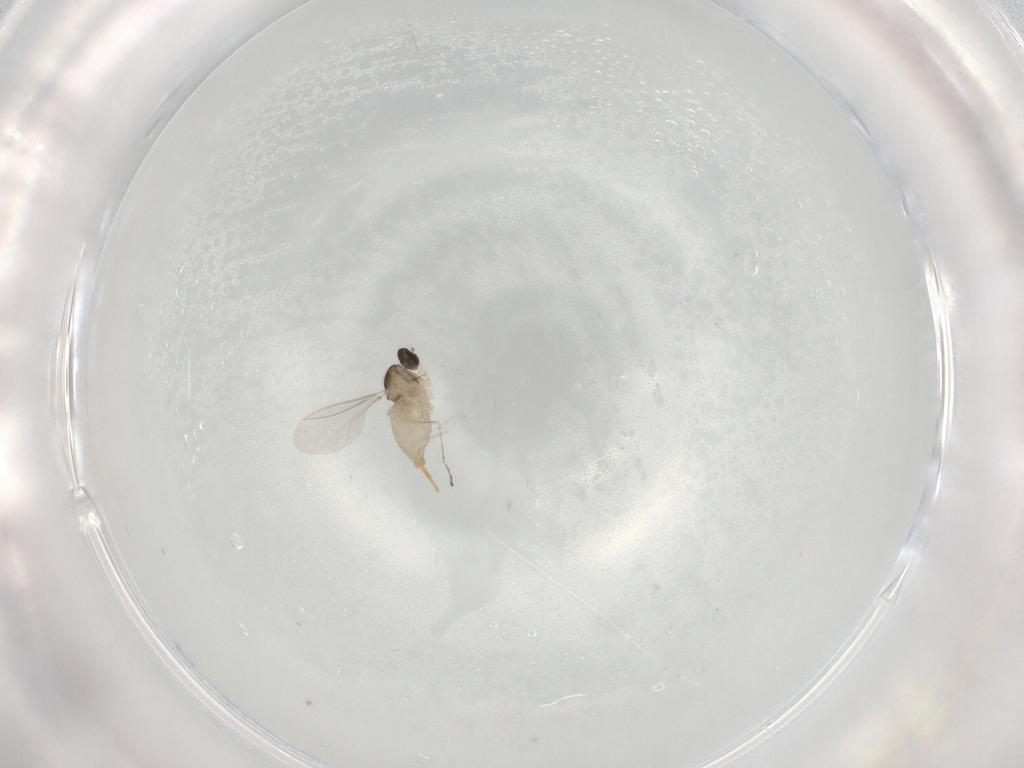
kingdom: Animalia
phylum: Arthropoda
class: Insecta
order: Diptera
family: Cecidomyiidae
